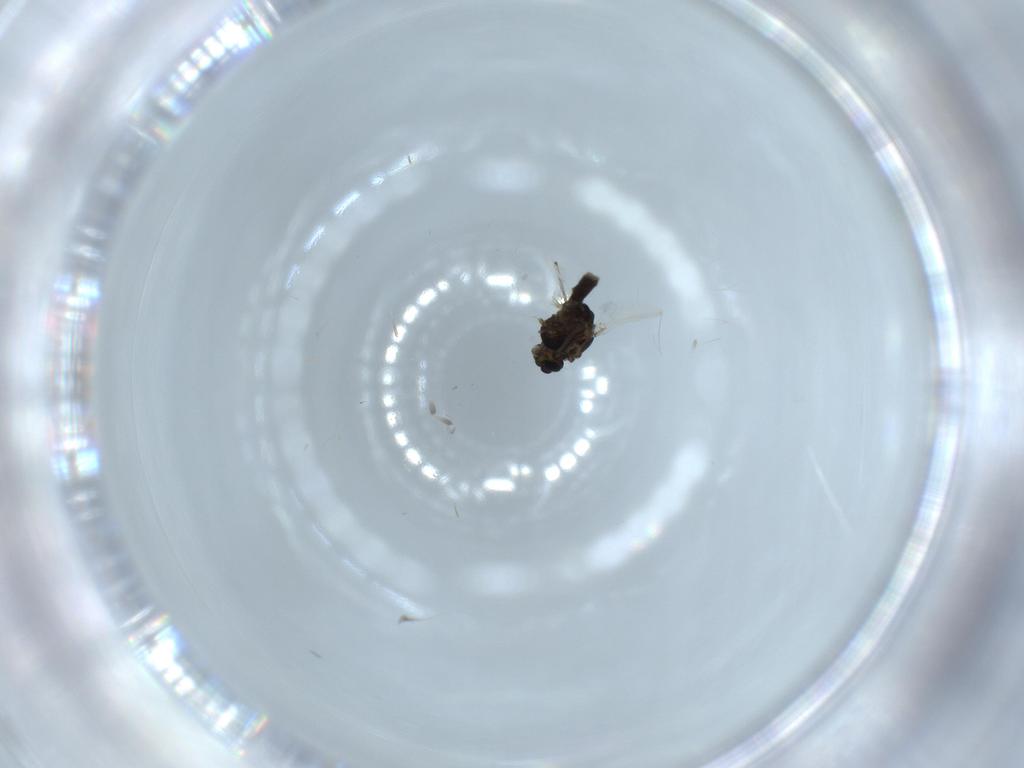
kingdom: Animalia
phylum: Arthropoda
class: Insecta
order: Diptera
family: Chironomidae
